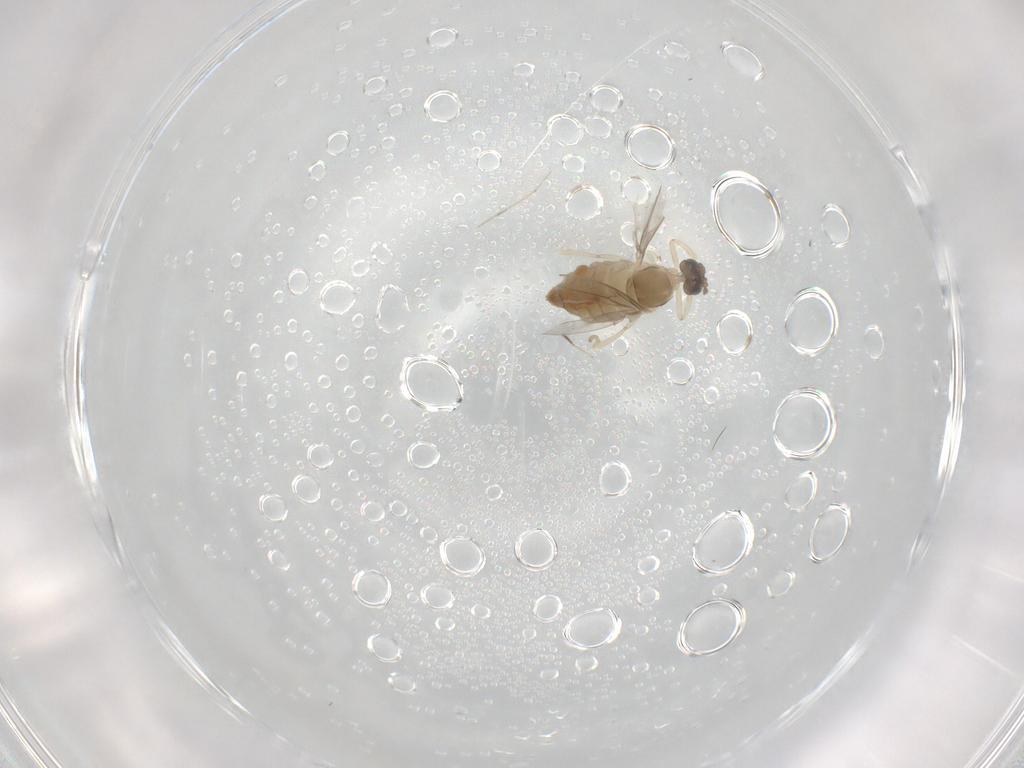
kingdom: Animalia
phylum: Arthropoda
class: Insecta
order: Diptera
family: Cecidomyiidae
